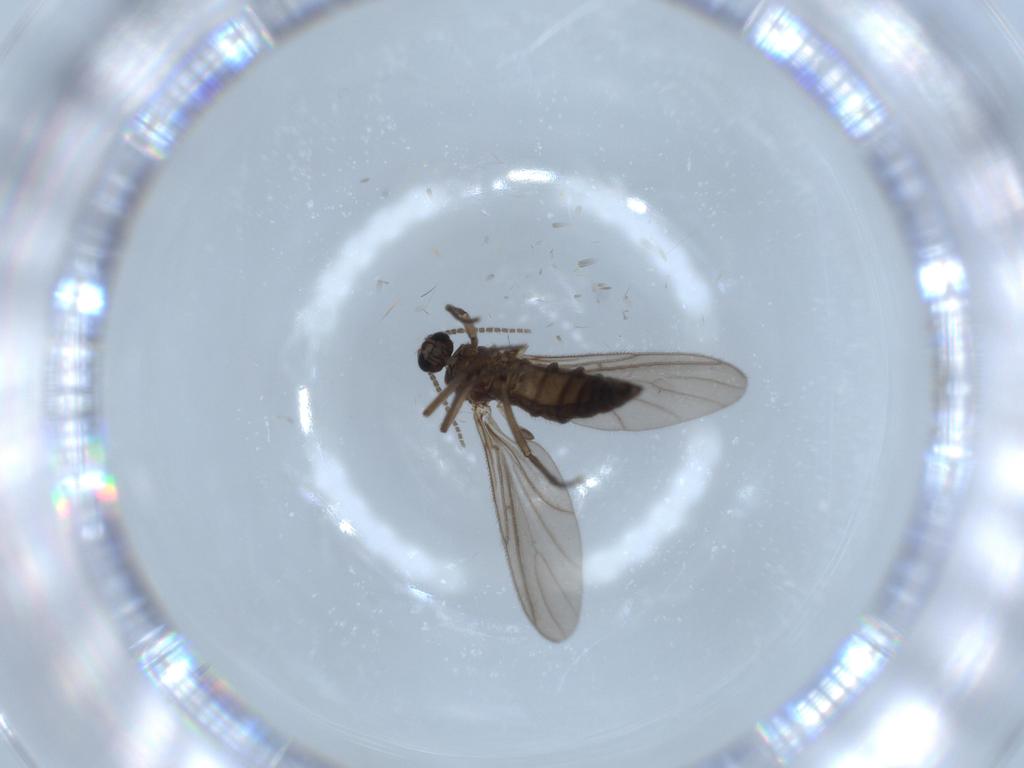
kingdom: Animalia
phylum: Arthropoda
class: Insecta
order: Diptera
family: Sciaridae
